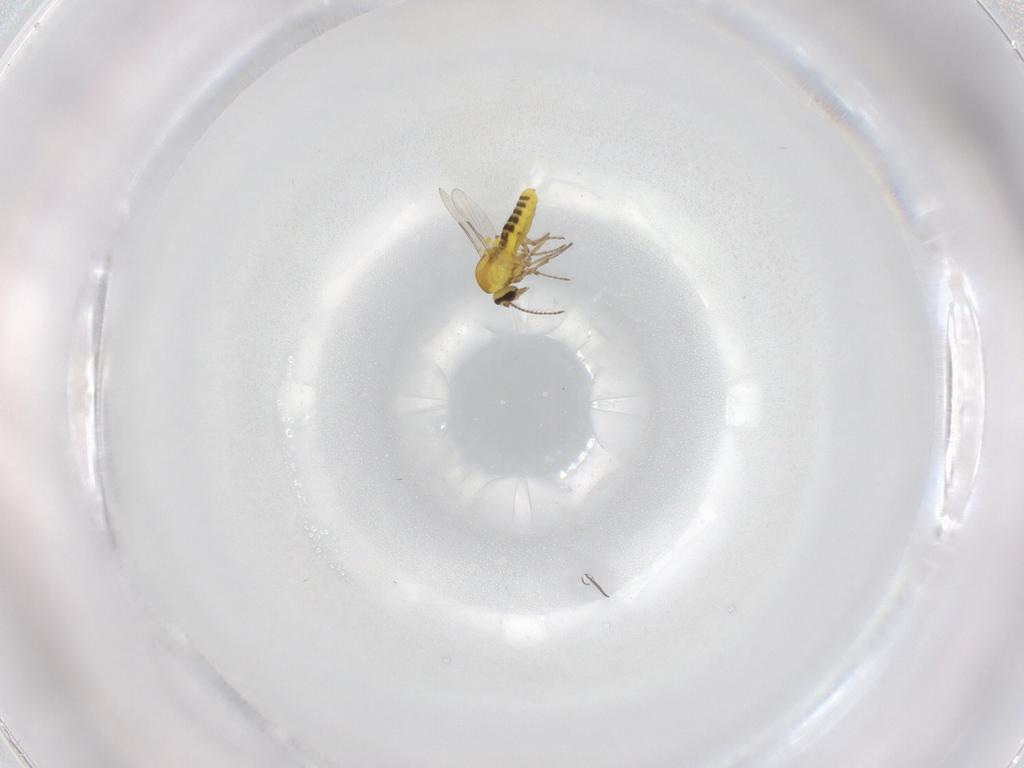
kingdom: Animalia
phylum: Arthropoda
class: Insecta
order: Diptera
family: Ceratopogonidae
